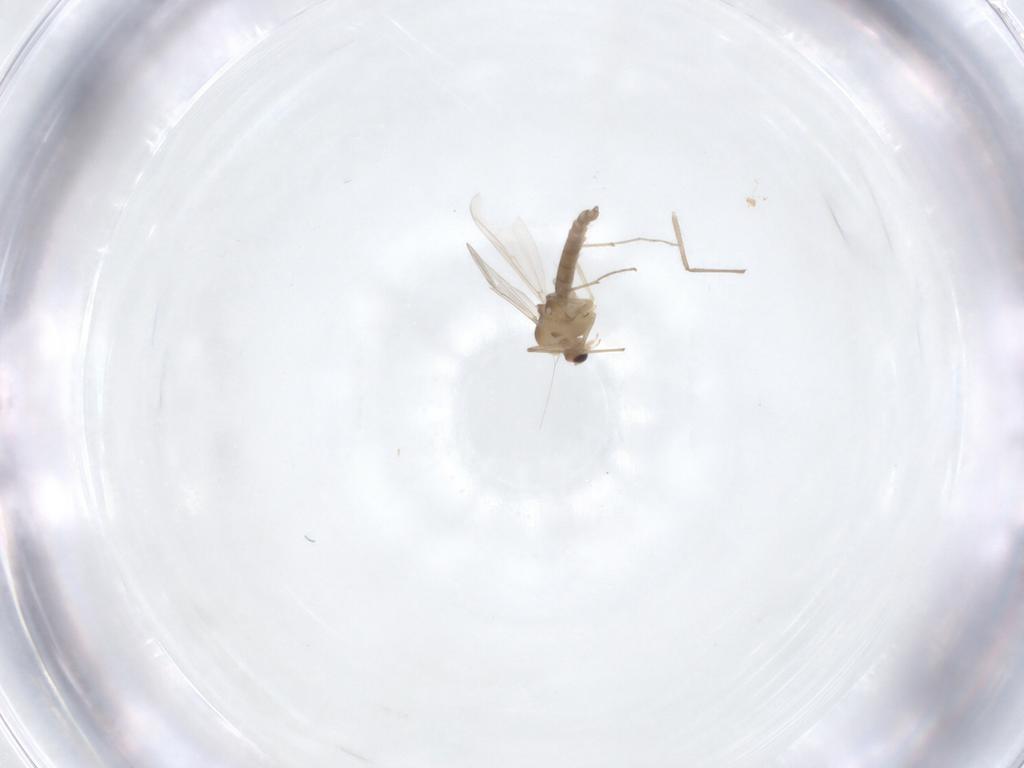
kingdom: Animalia
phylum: Arthropoda
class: Insecta
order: Diptera
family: Chironomidae
